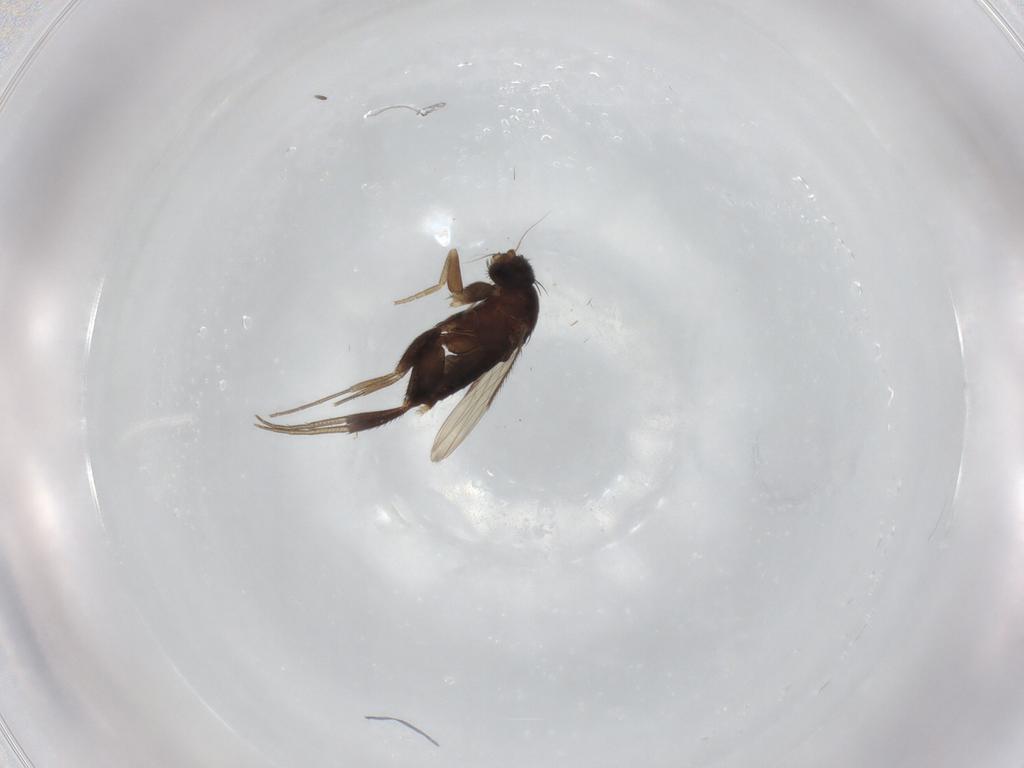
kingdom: Animalia
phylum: Arthropoda
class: Insecta
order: Diptera
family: Phoridae
